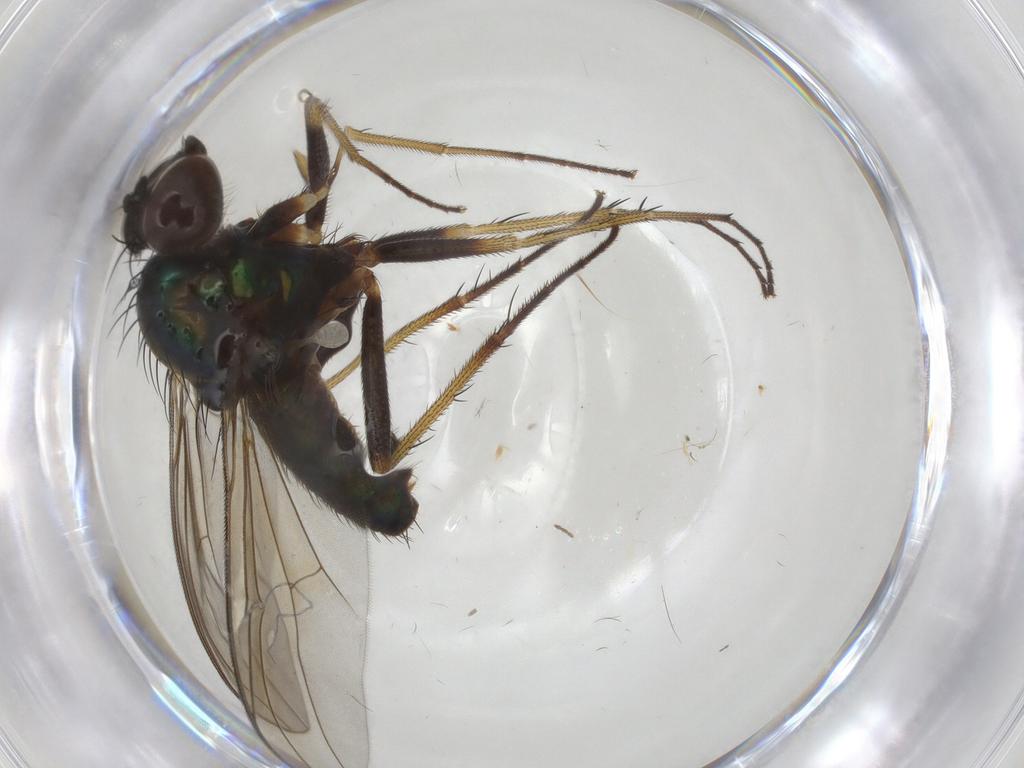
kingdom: Animalia
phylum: Arthropoda
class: Insecta
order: Diptera
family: Dolichopodidae
